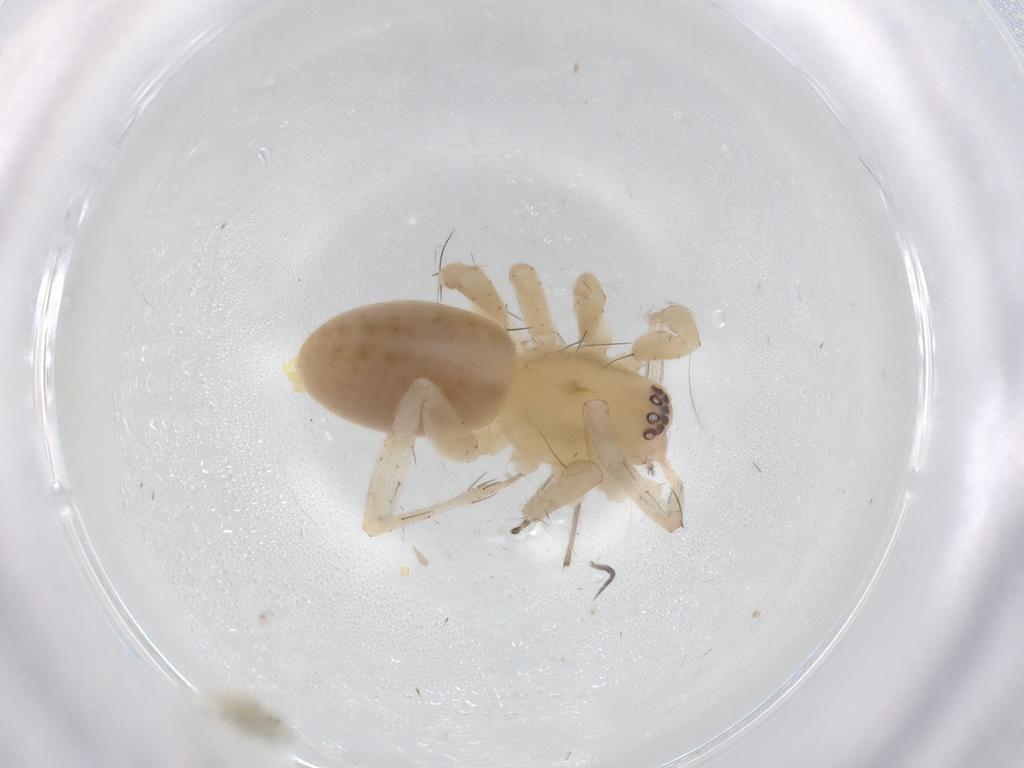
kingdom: Animalia
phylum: Arthropoda
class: Arachnida
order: Araneae
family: Anyphaenidae
